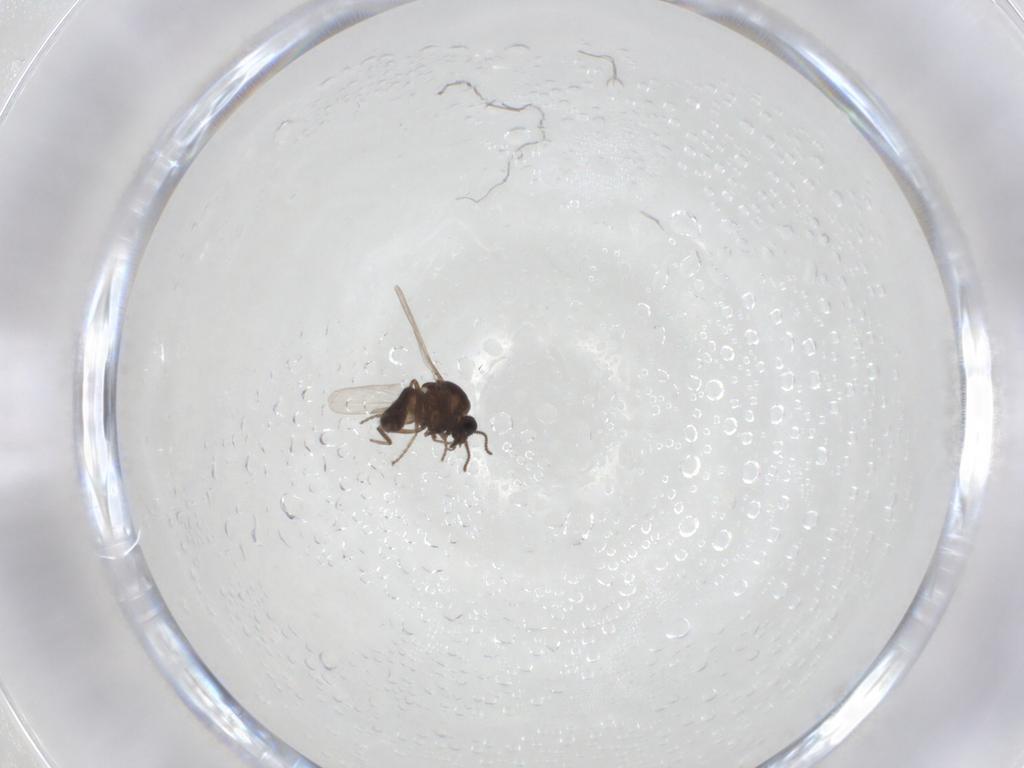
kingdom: Animalia
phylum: Arthropoda
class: Insecta
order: Diptera
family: Ceratopogonidae
